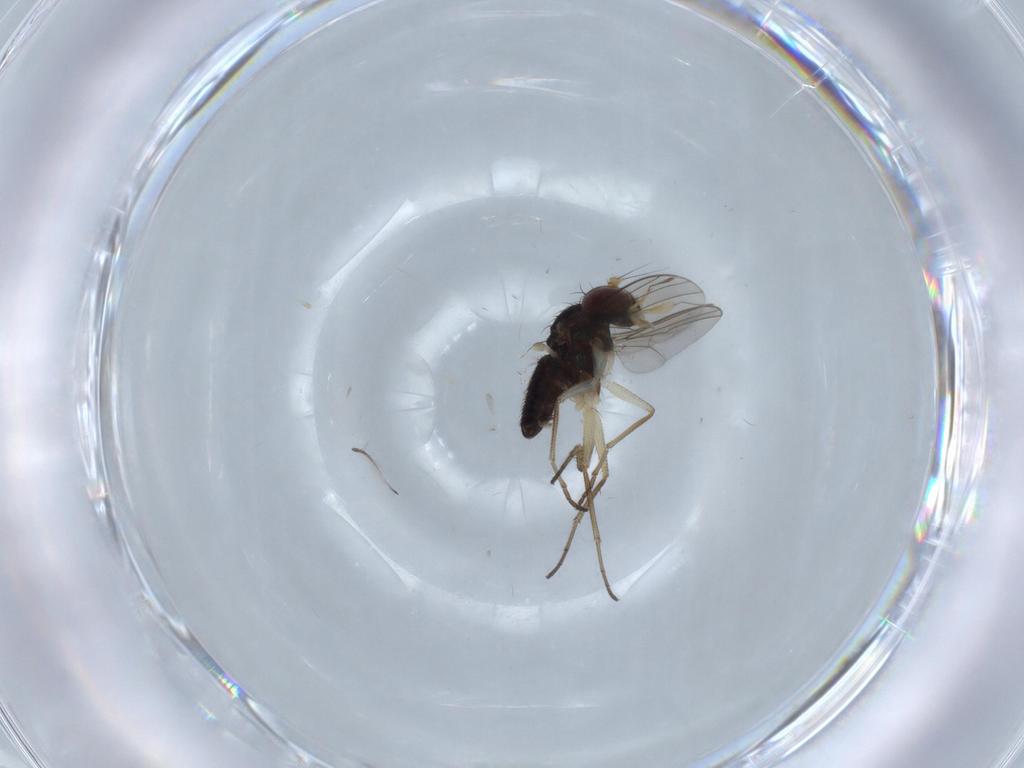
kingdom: Animalia
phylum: Arthropoda
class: Insecta
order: Diptera
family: Dolichopodidae
